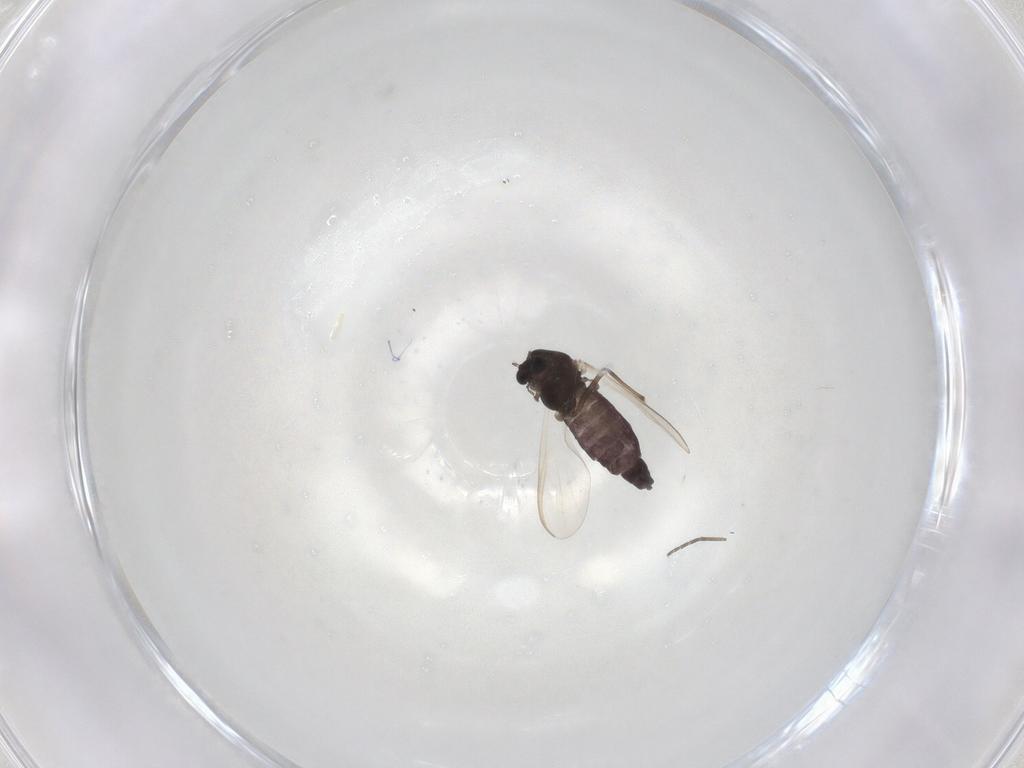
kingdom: Animalia
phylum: Arthropoda
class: Insecta
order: Diptera
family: Chironomidae
